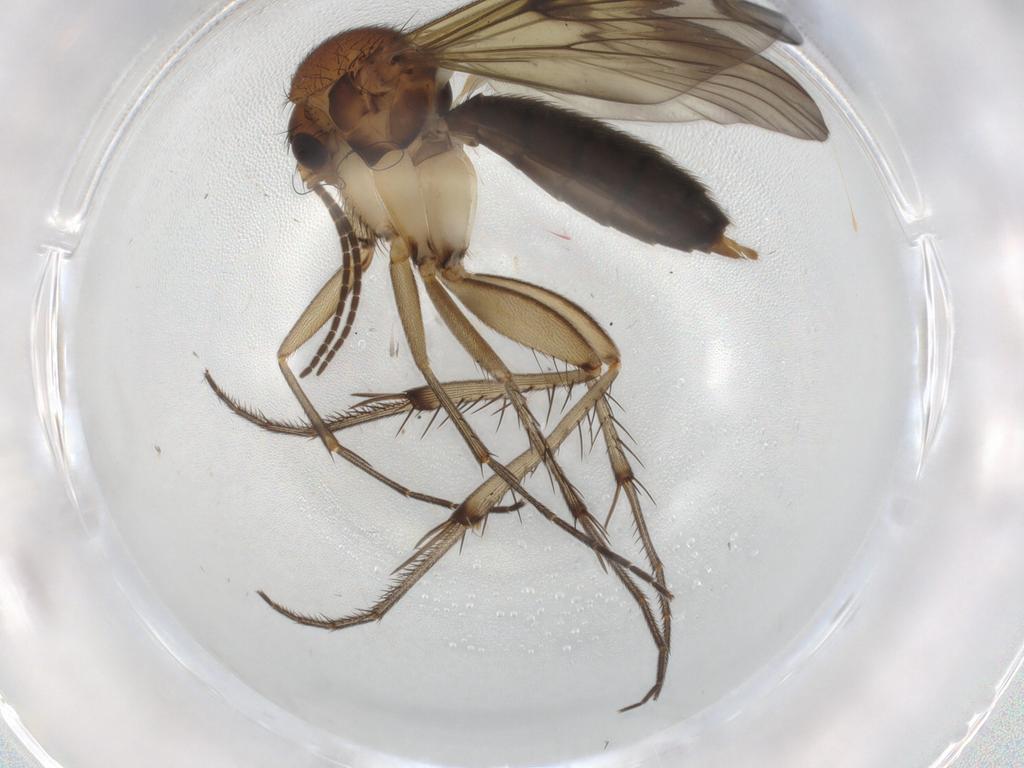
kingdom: Animalia
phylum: Arthropoda
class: Insecta
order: Diptera
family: Mycetophilidae
